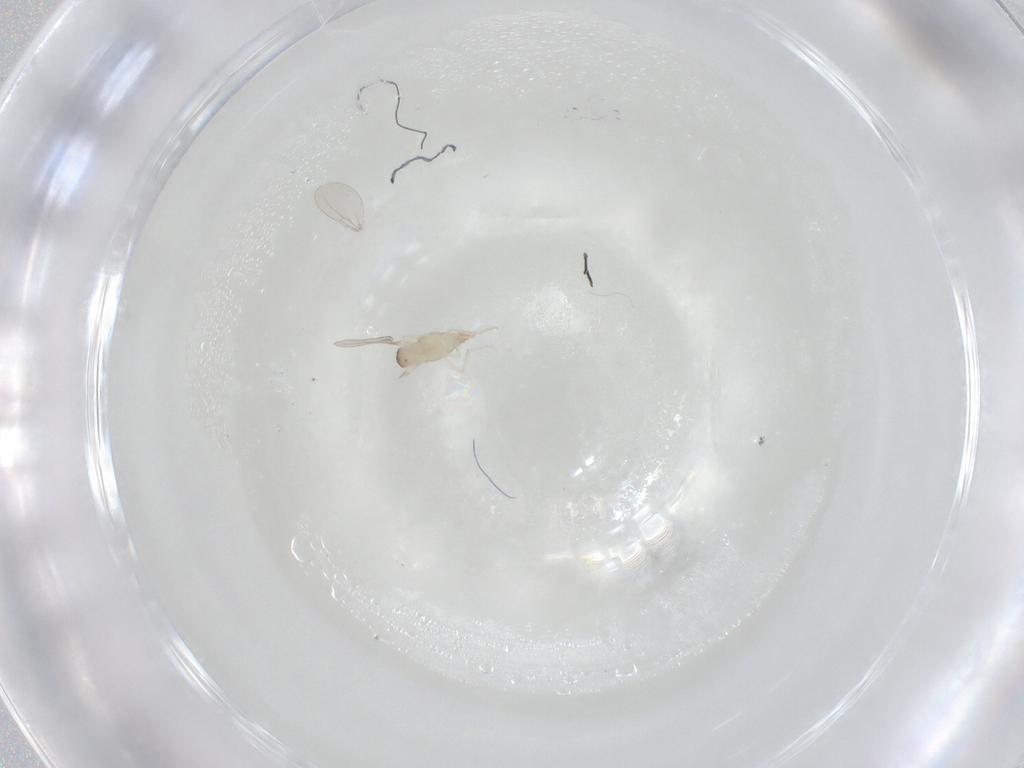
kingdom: Animalia
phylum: Arthropoda
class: Insecta
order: Diptera
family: Cecidomyiidae
